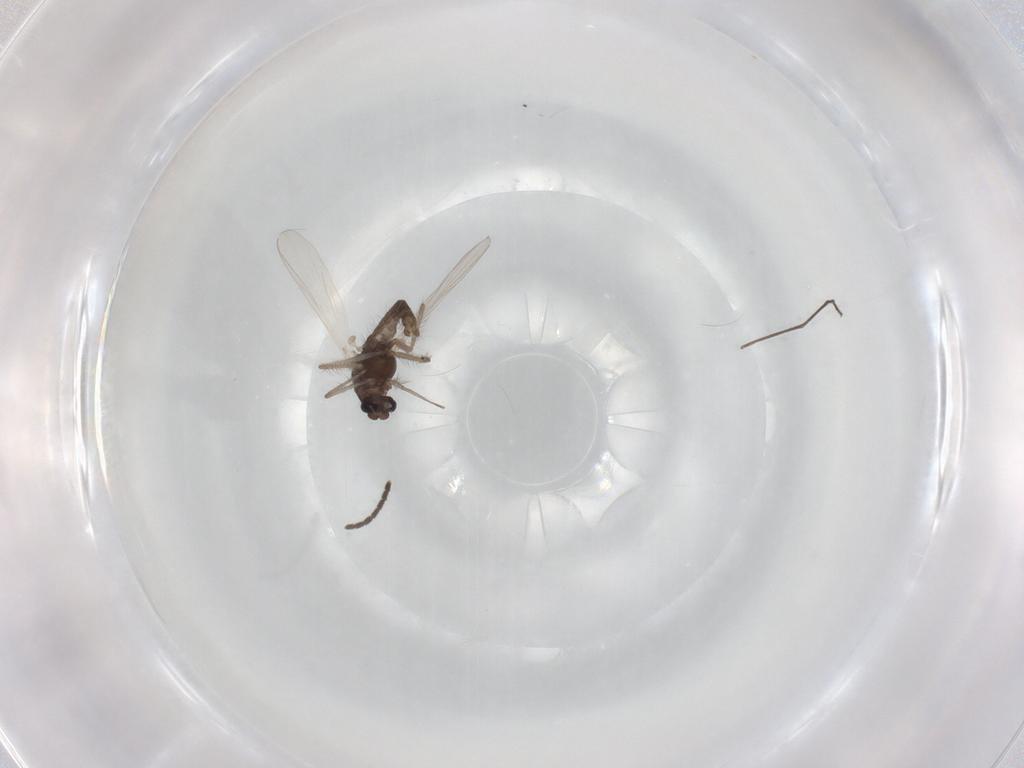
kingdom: Animalia
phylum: Arthropoda
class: Insecta
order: Diptera
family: Chironomidae
